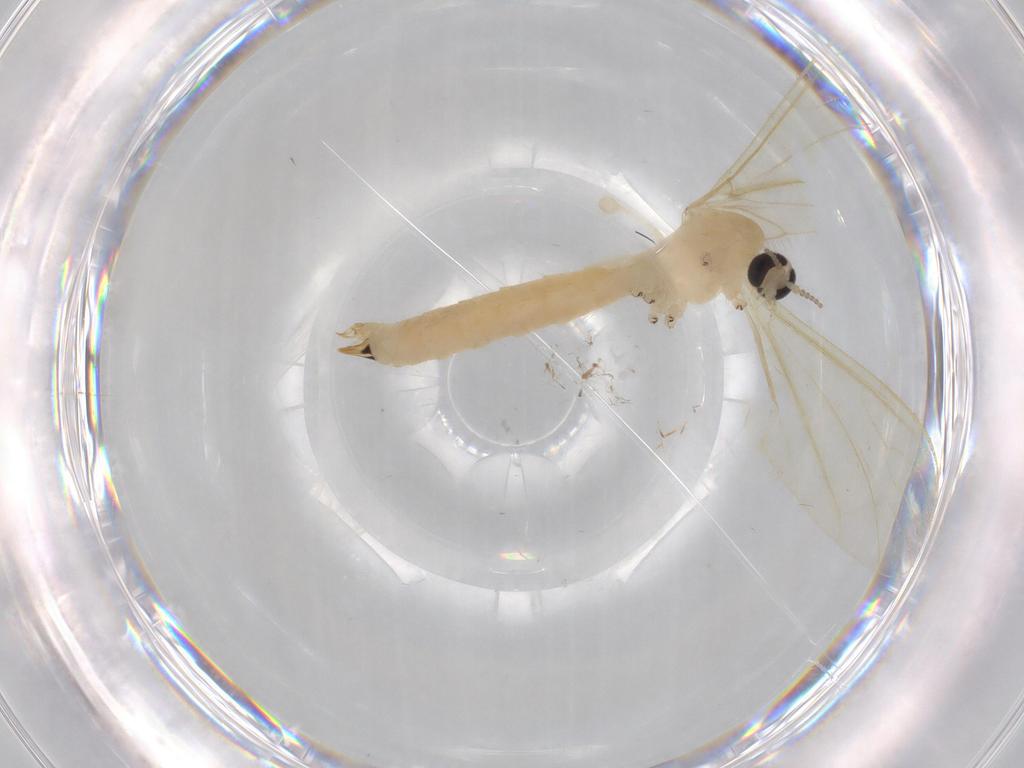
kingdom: Animalia
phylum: Arthropoda
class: Insecta
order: Diptera
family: Limoniidae
